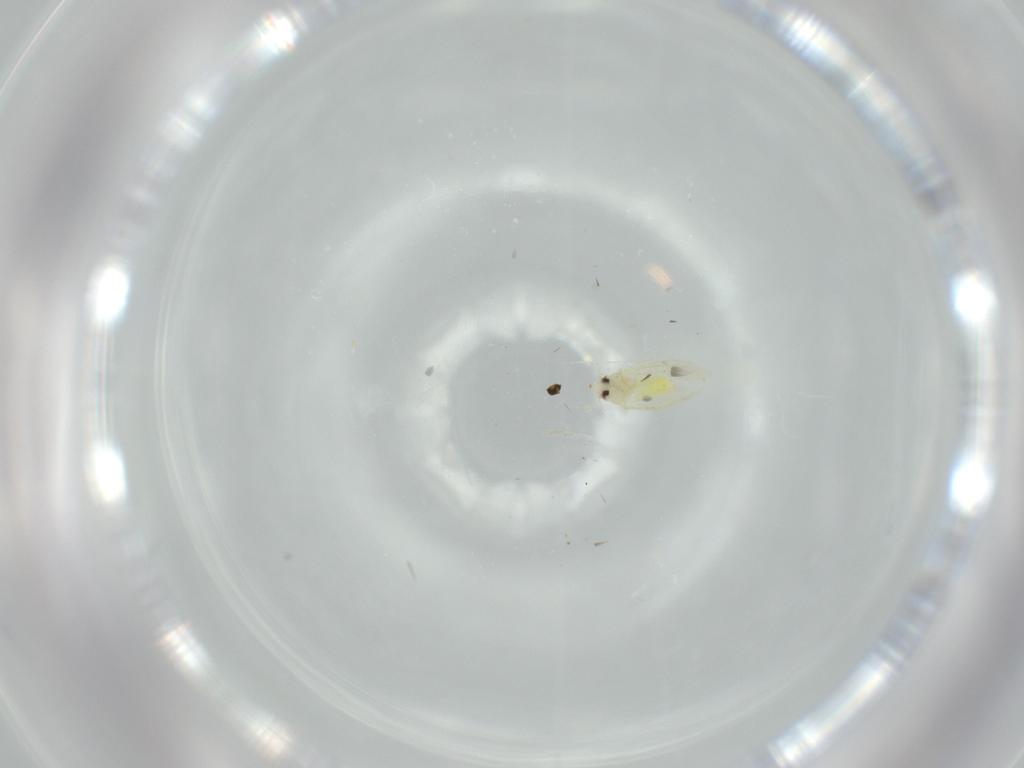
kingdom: Animalia
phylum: Arthropoda
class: Insecta
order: Hemiptera
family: Aleyrodidae
